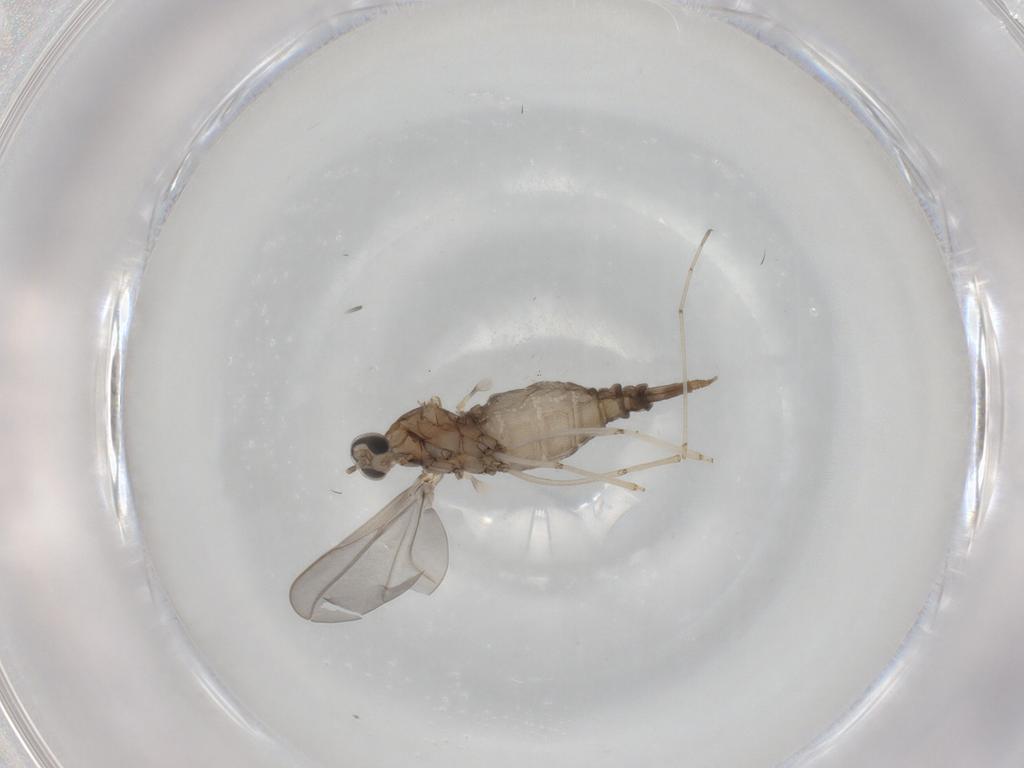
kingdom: Animalia
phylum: Arthropoda
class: Insecta
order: Diptera
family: Cecidomyiidae
